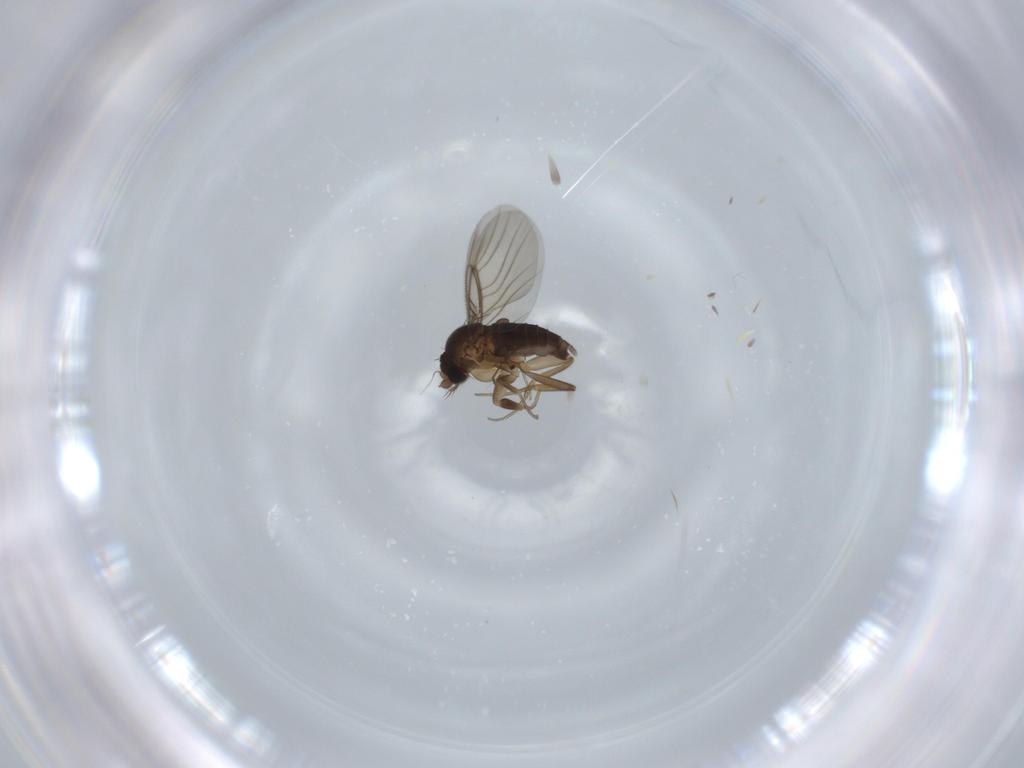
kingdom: Animalia
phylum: Arthropoda
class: Insecta
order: Diptera
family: Phoridae
